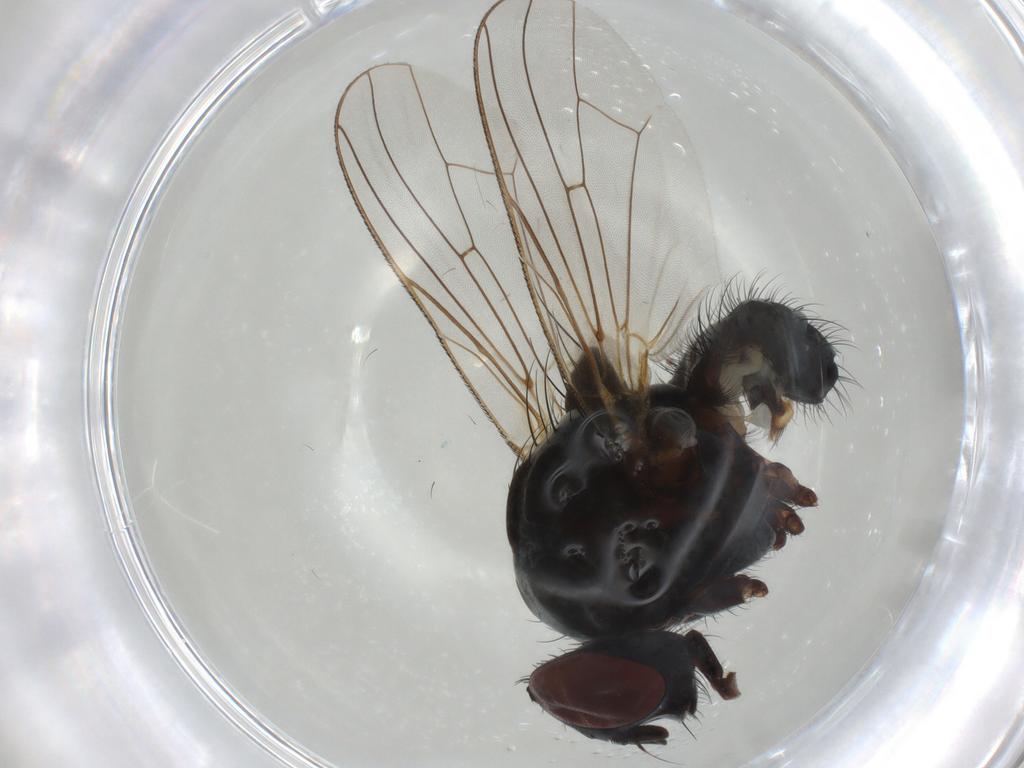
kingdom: Animalia
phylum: Arthropoda
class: Insecta
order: Diptera
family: Anthomyiidae
